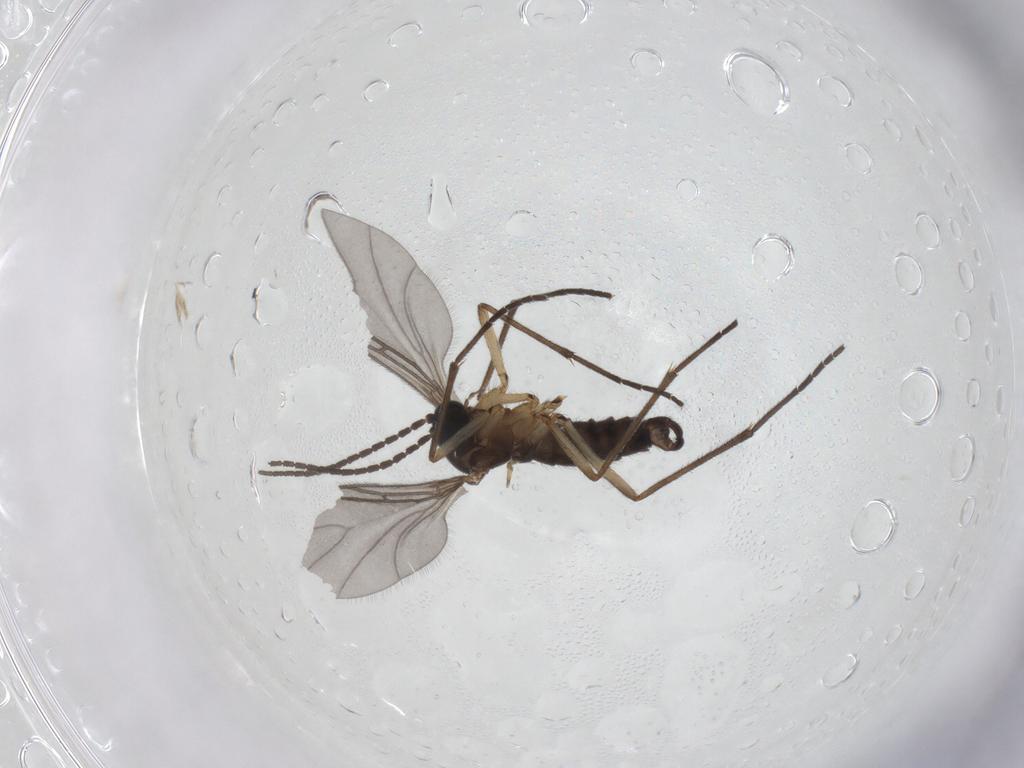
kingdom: Animalia
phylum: Arthropoda
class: Insecta
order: Diptera
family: Sciaridae
